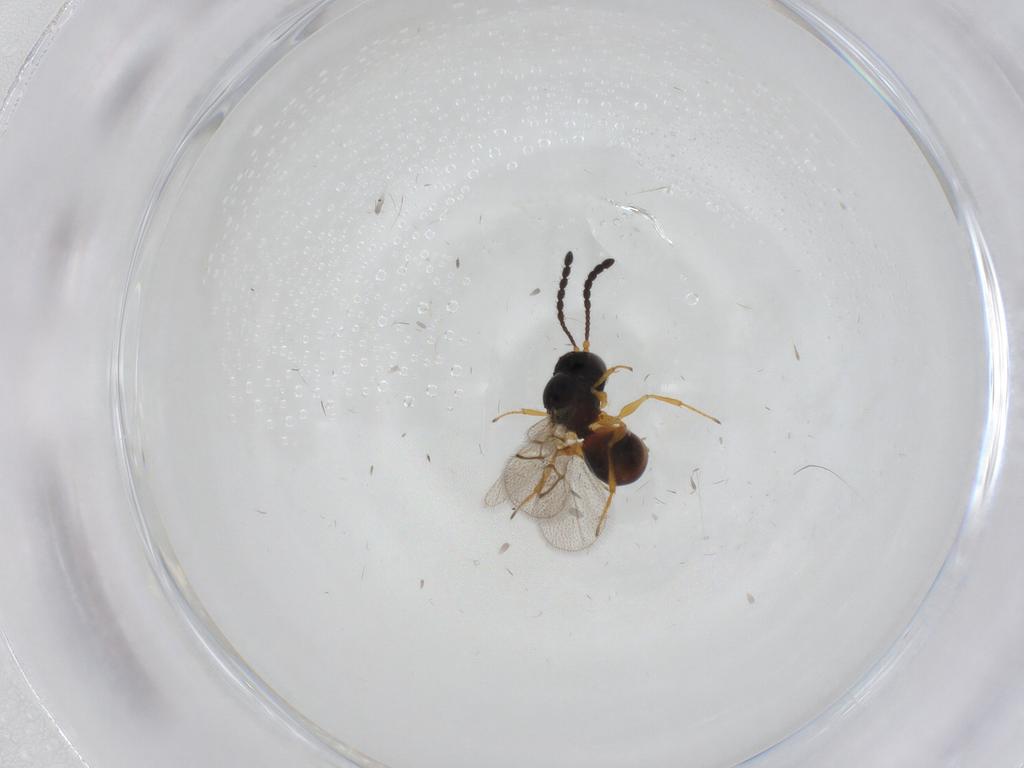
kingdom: Animalia
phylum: Arthropoda
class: Insecta
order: Hymenoptera
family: Figitidae
